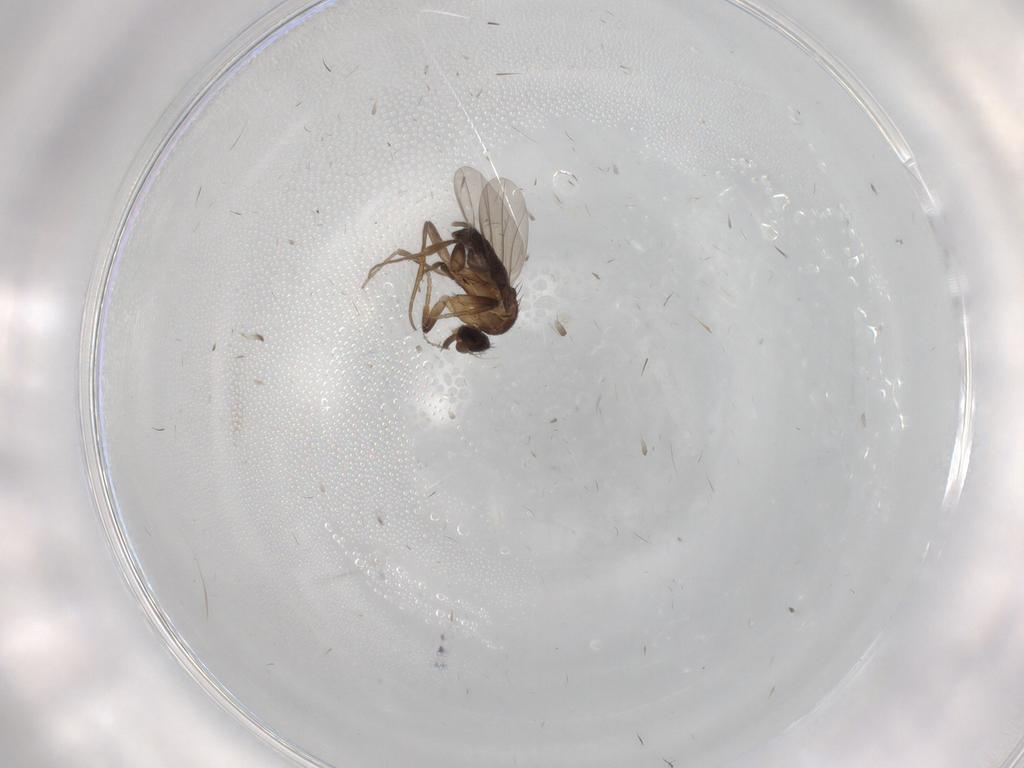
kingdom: Animalia
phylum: Arthropoda
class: Insecta
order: Diptera
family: Phoridae
